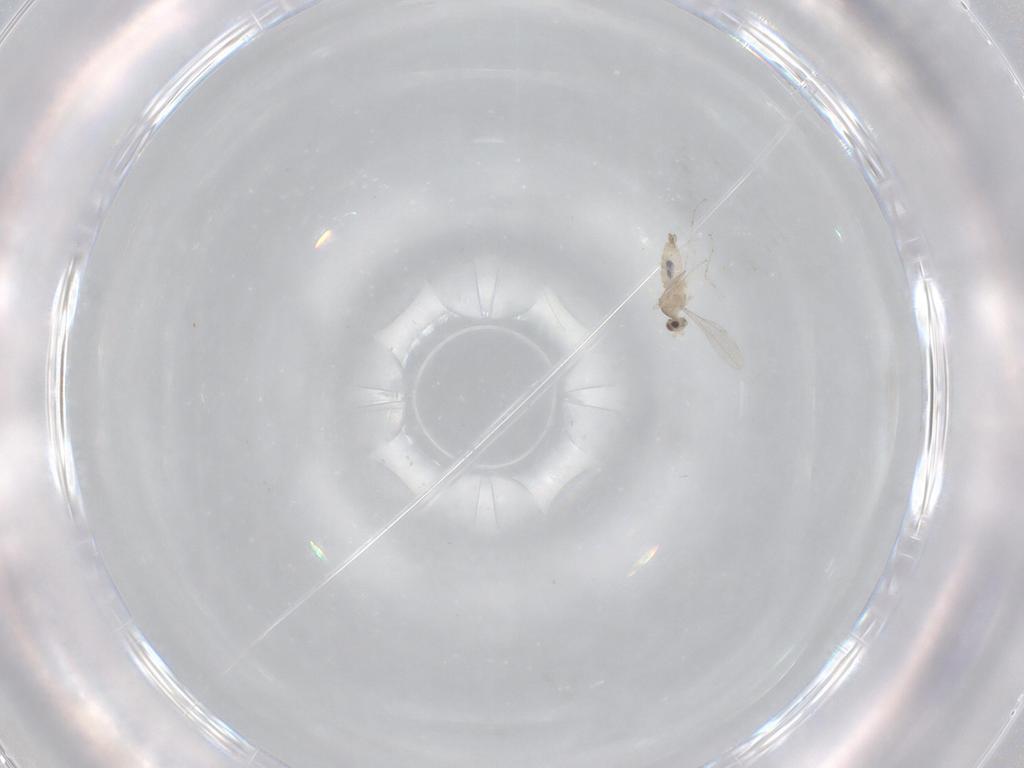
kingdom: Animalia
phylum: Arthropoda
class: Insecta
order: Diptera
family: Cecidomyiidae
